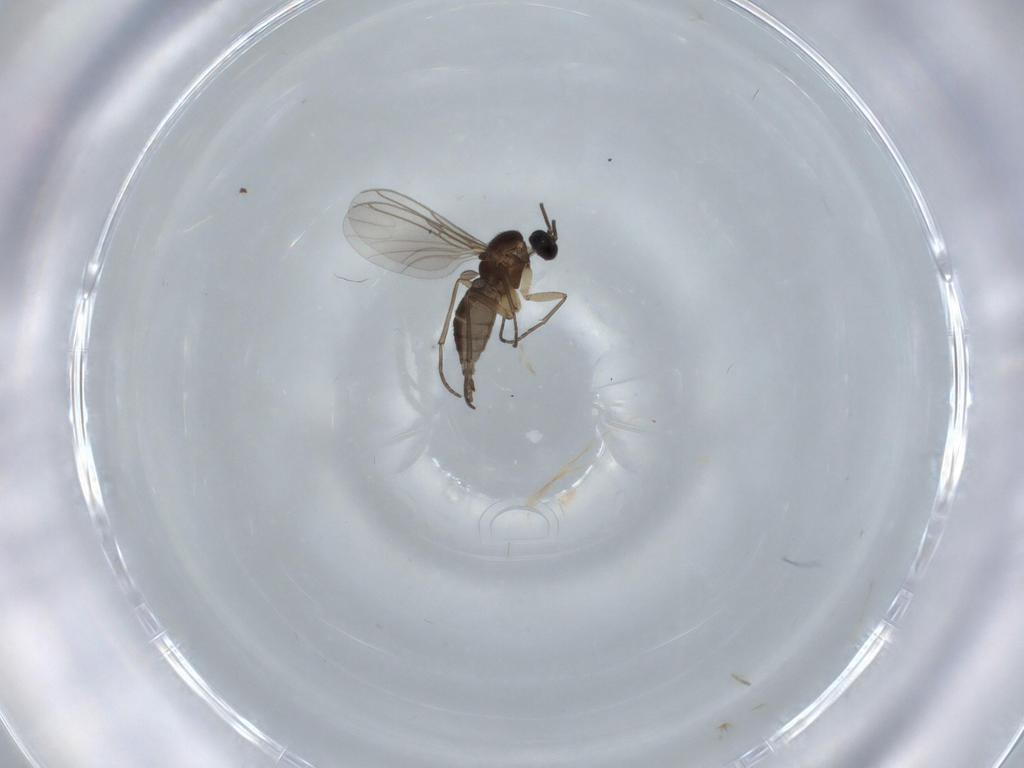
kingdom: Animalia
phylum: Arthropoda
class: Insecta
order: Diptera
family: Sciaridae
